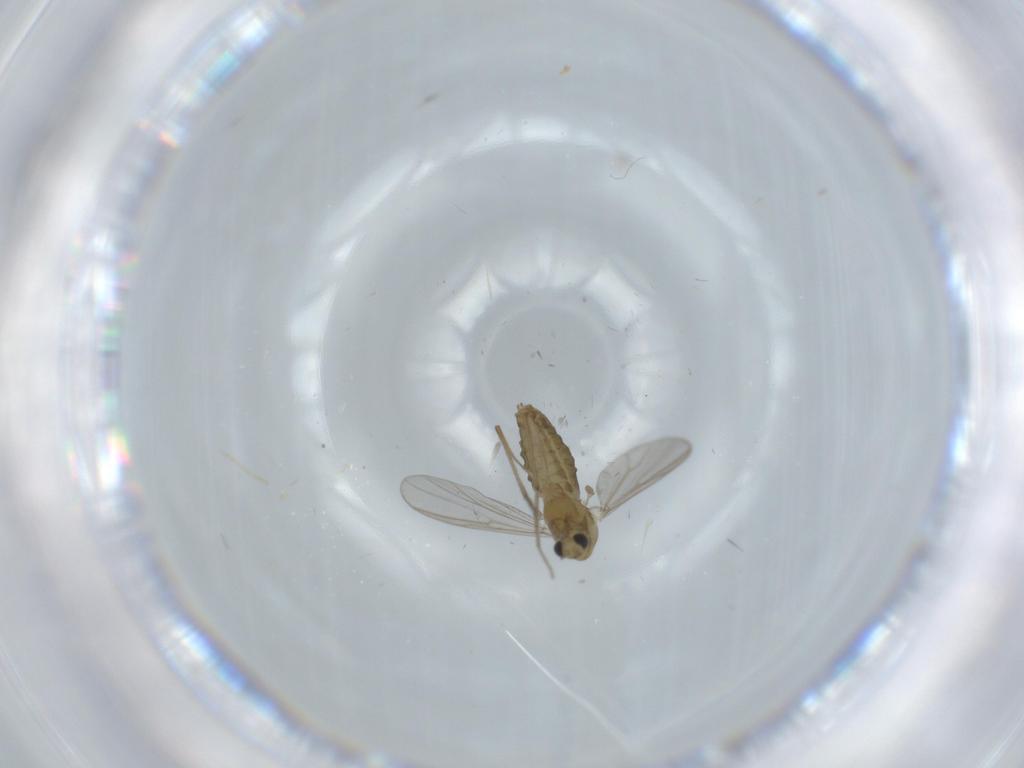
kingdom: Animalia
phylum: Arthropoda
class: Insecta
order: Diptera
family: Chironomidae
